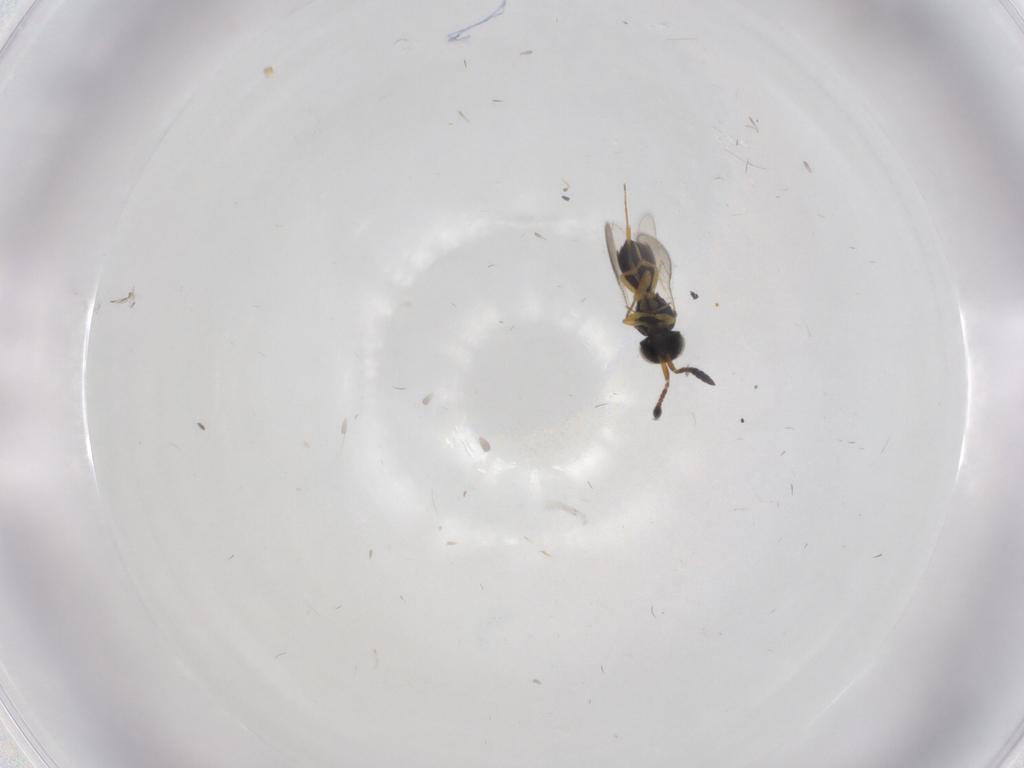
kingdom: Animalia
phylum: Arthropoda
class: Insecta
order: Hymenoptera
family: Scelionidae
